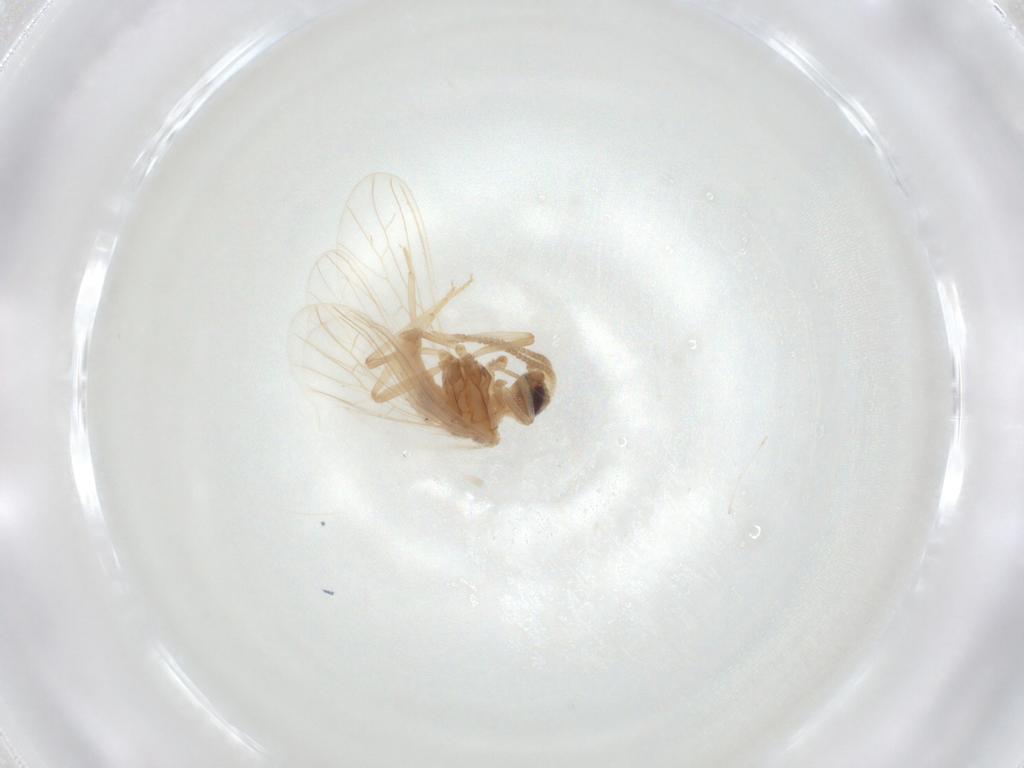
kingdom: Animalia
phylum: Arthropoda
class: Insecta
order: Neuroptera
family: Coniopterygidae
